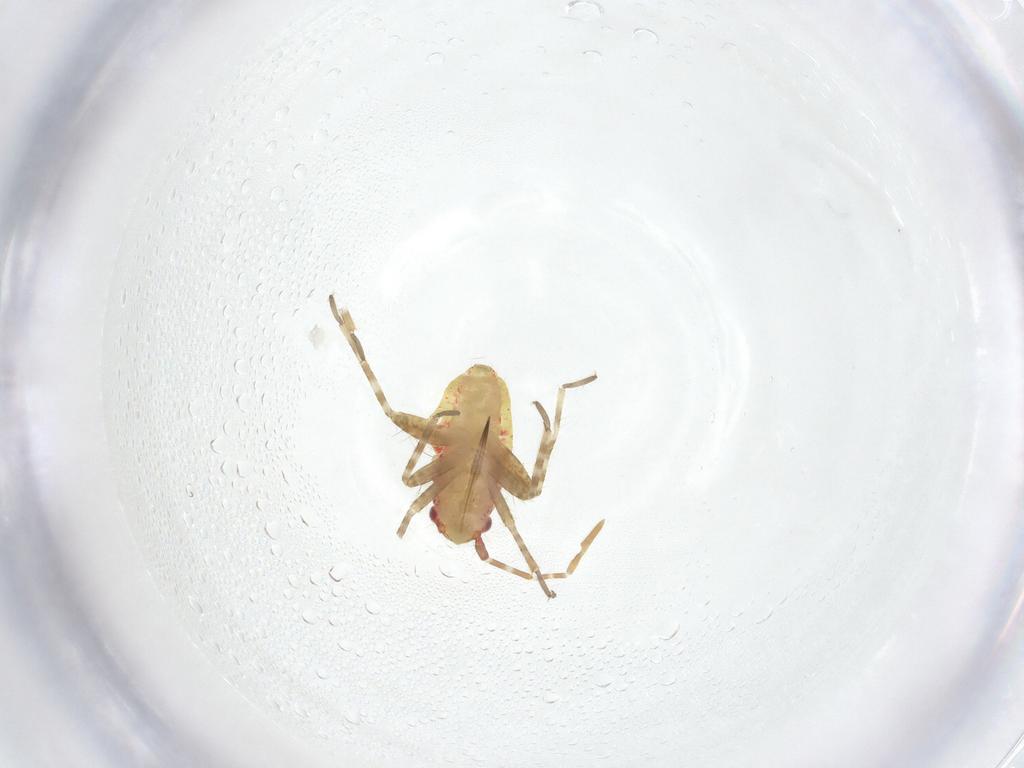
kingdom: Animalia
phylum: Arthropoda
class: Insecta
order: Hemiptera
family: Miridae
